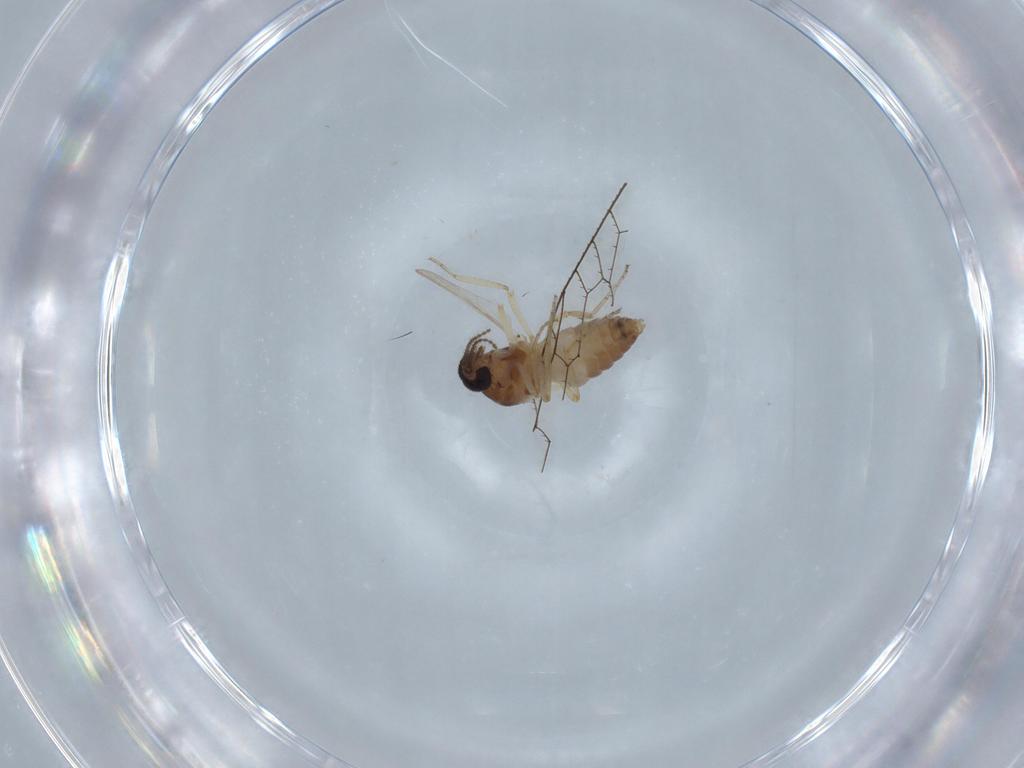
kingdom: Animalia
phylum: Arthropoda
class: Insecta
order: Diptera
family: Ceratopogonidae
